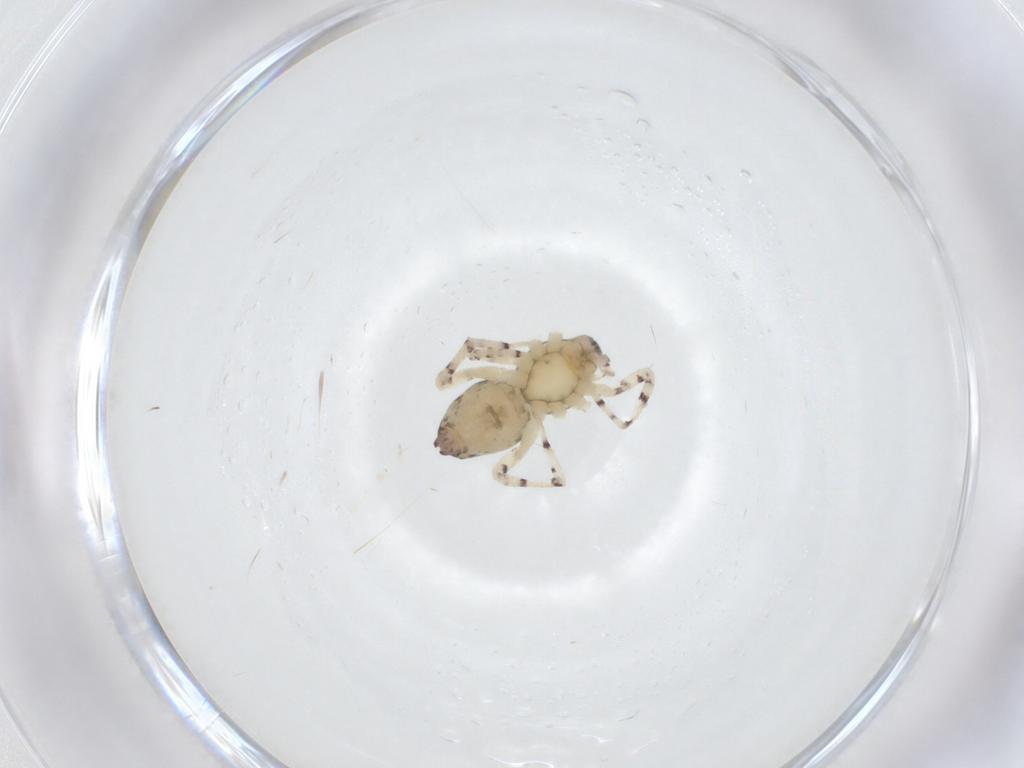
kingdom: Animalia
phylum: Arthropoda
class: Arachnida
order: Araneae
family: Anyphaenidae
